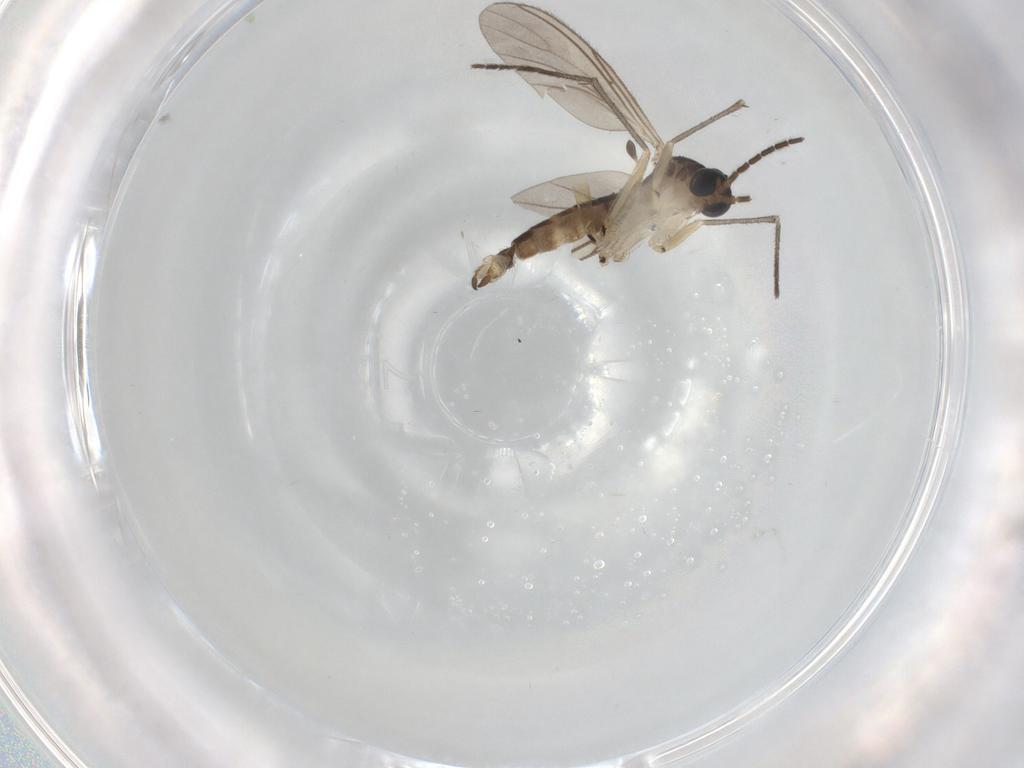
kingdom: Animalia
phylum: Arthropoda
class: Insecta
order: Diptera
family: Sciaridae
